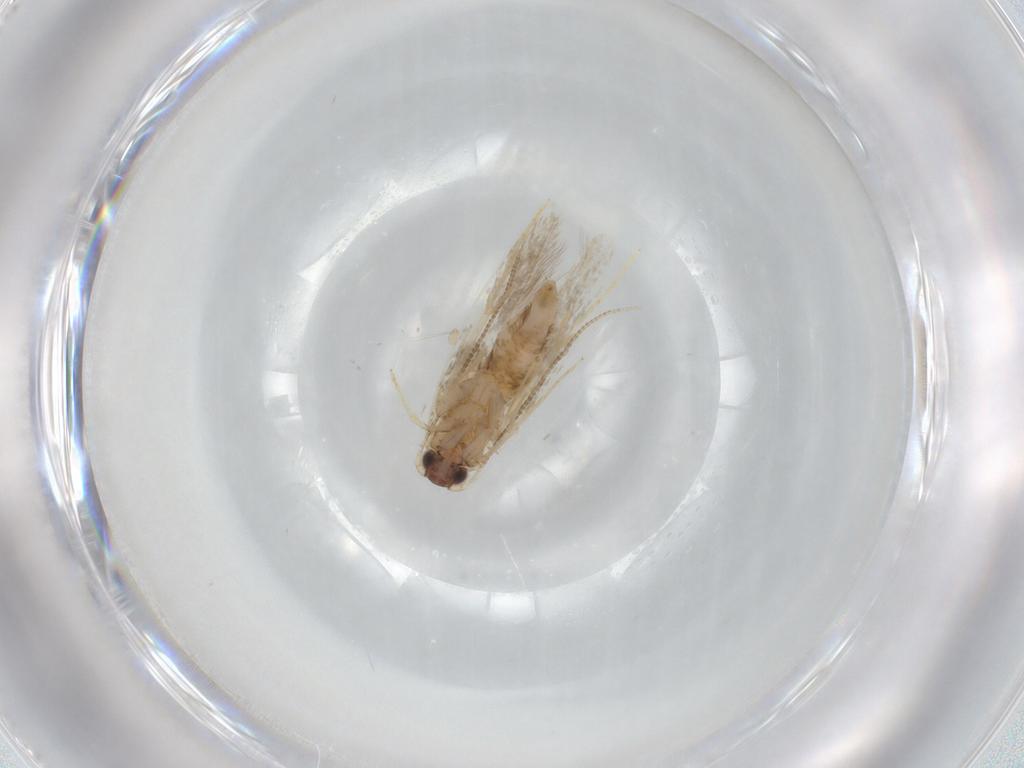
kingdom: Animalia
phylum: Arthropoda
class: Insecta
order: Lepidoptera
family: Tineidae
